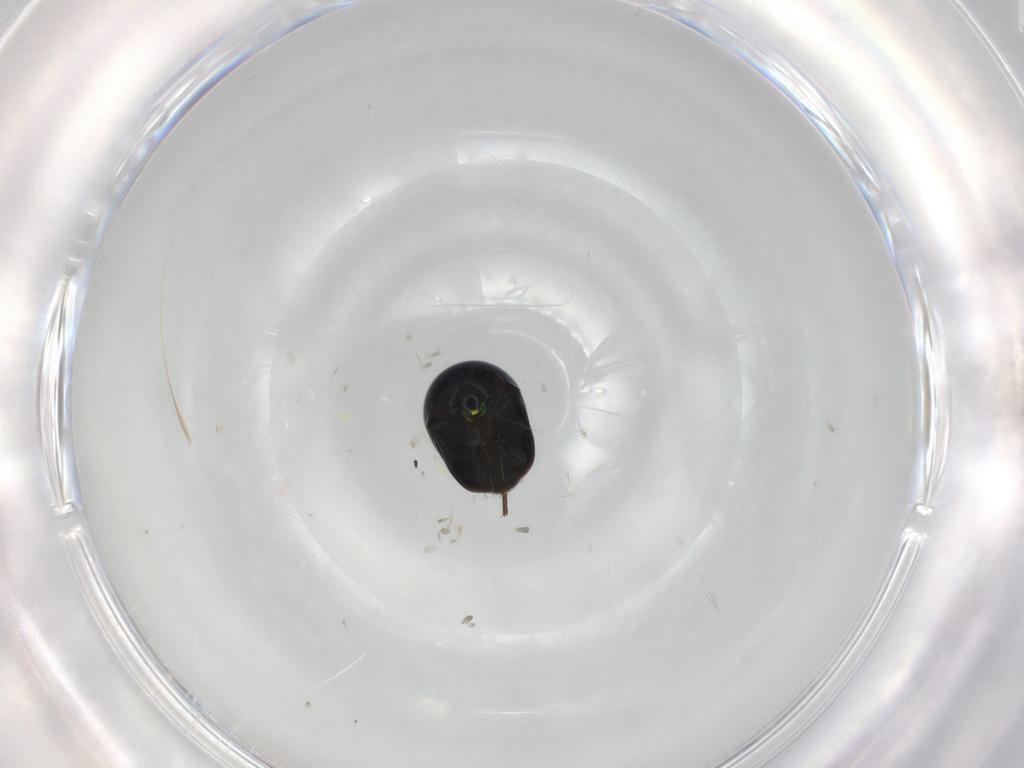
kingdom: Animalia
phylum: Arthropoda
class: Insecta
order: Coleoptera
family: Cybocephalidae
